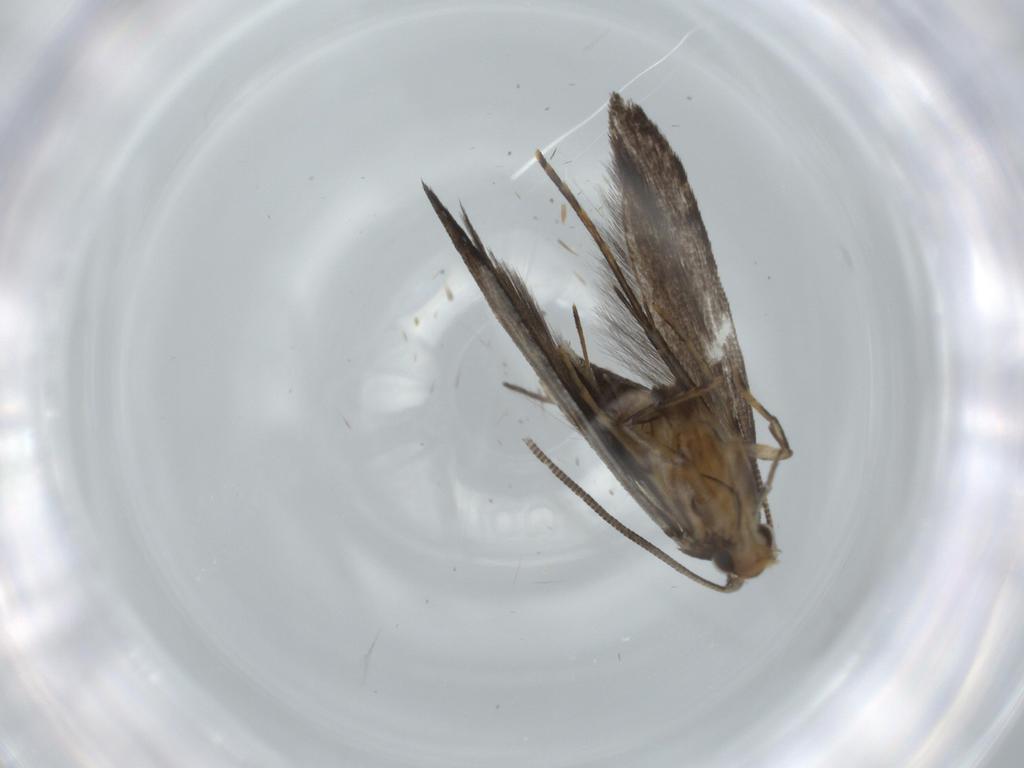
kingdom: Animalia
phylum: Arthropoda
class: Insecta
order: Lepidoptera
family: Tineidae
